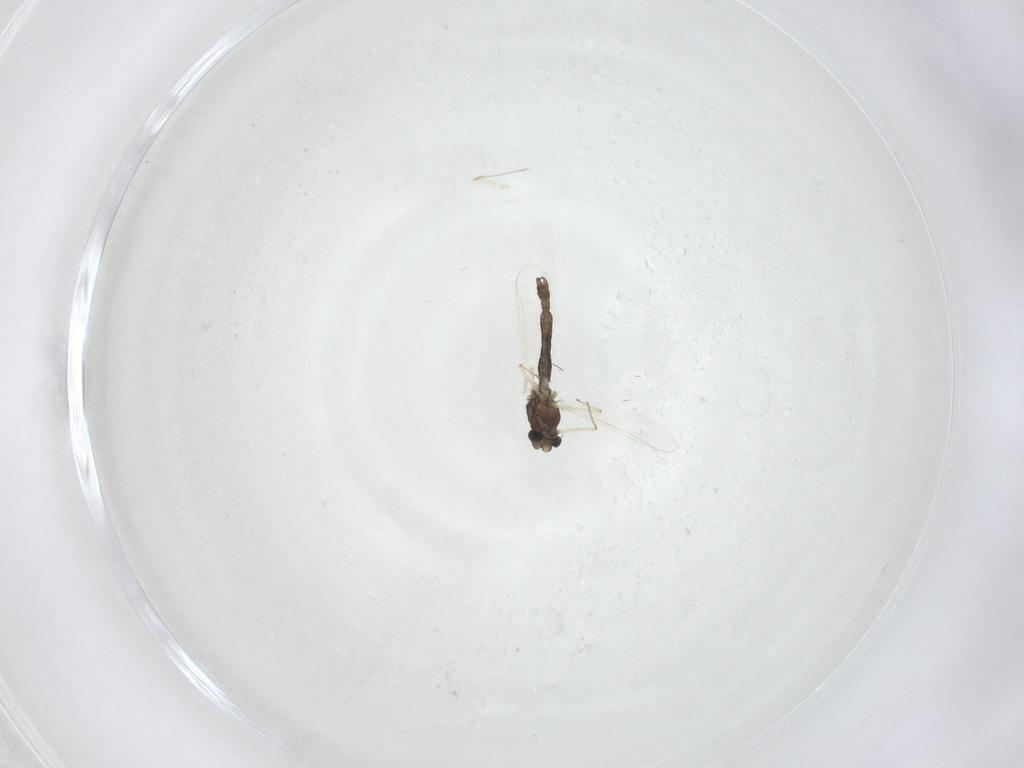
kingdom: Animalia
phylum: Arthropoda
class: Insecta
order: Diptera
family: Chironomidae
